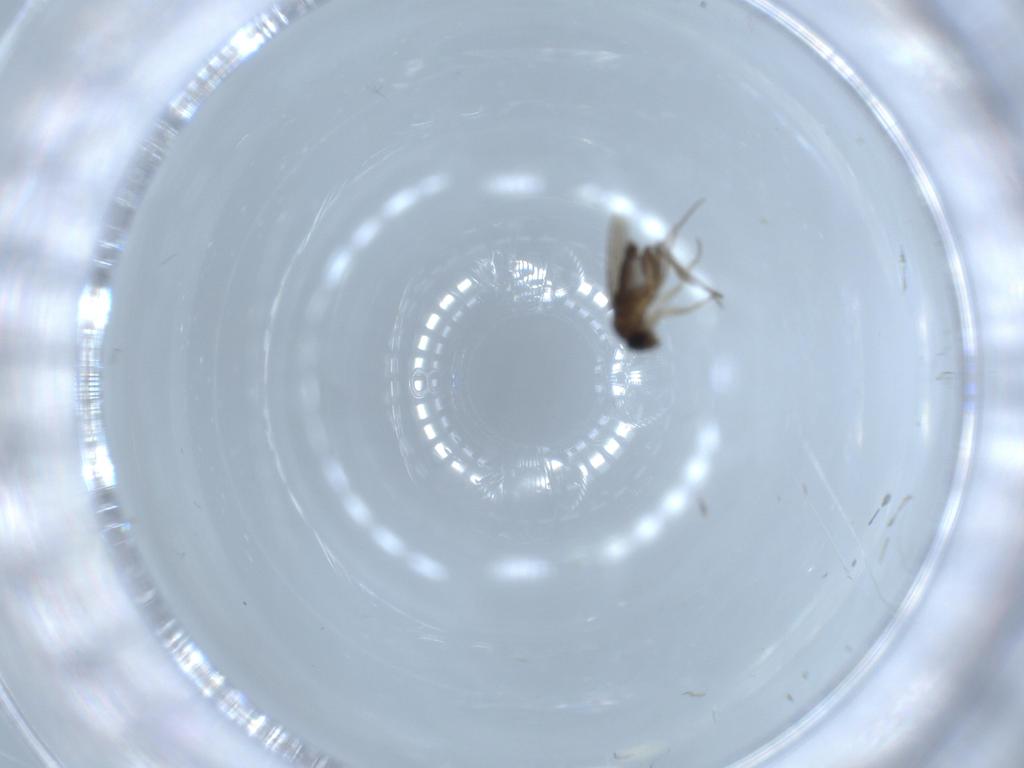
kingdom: Animalia
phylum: Arthropoda
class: Insecta
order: Diptera
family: Phoridae
